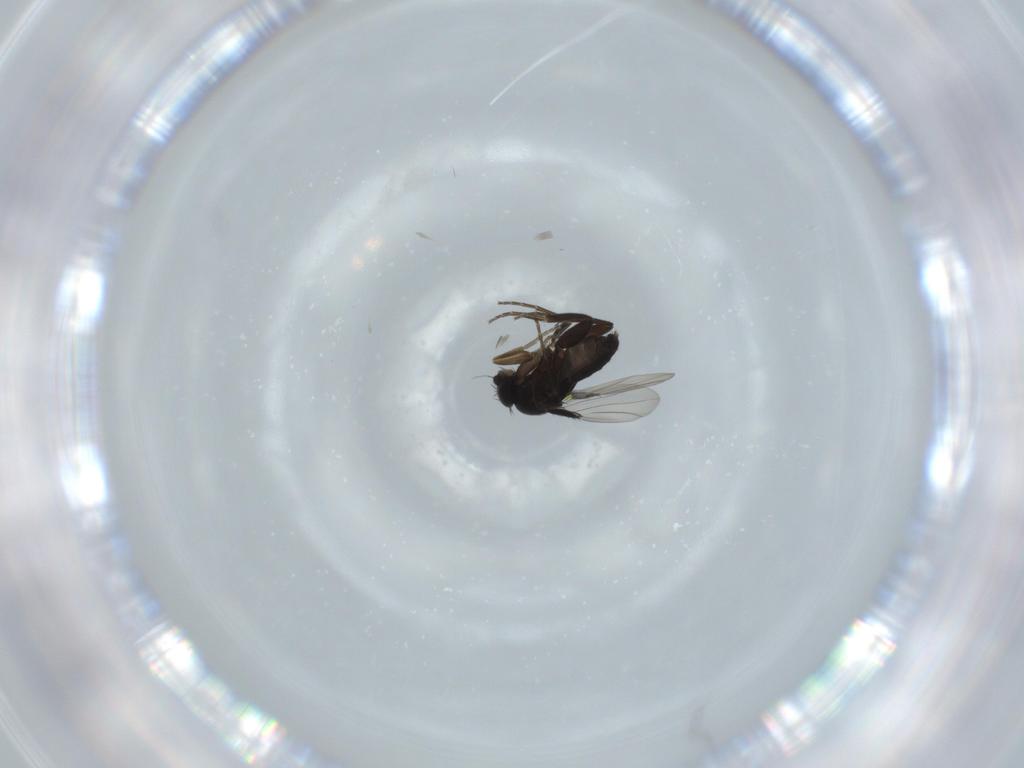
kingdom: Animalia
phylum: Arthropoda
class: Insecta
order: Diptera
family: Phoridae
